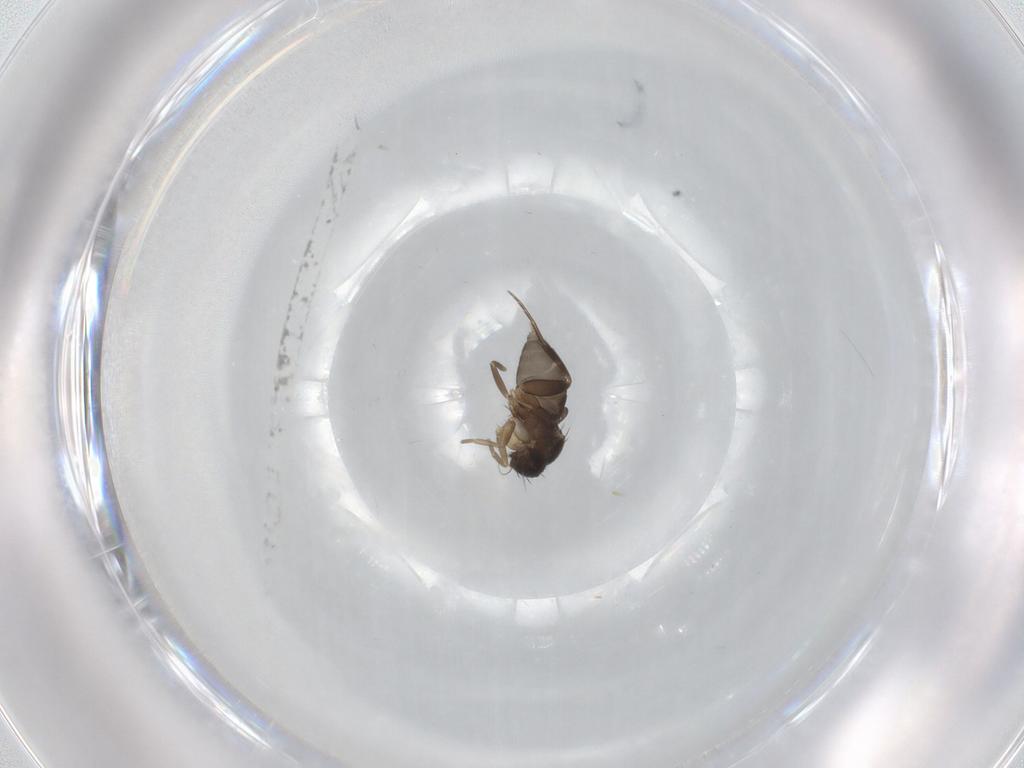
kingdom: Animalia
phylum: Arthropoda
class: Insecta
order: Diptera
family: Phoridae
